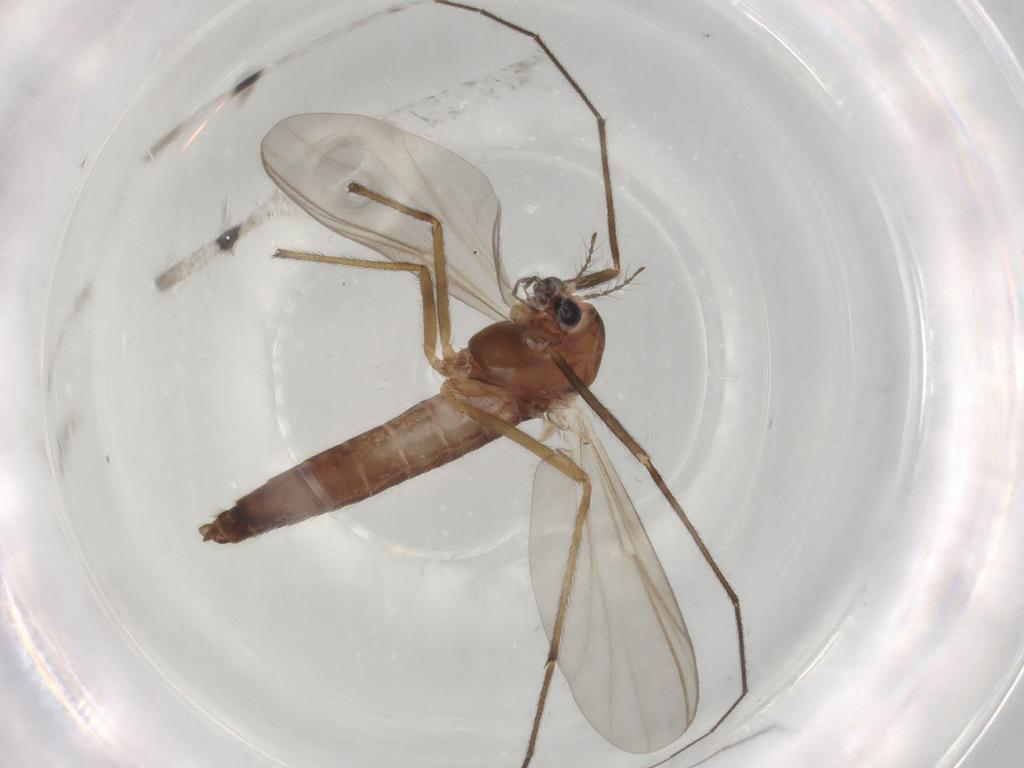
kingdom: Animalia
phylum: Arthropoda
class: Insecta
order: Diptera
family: Chironomidae
